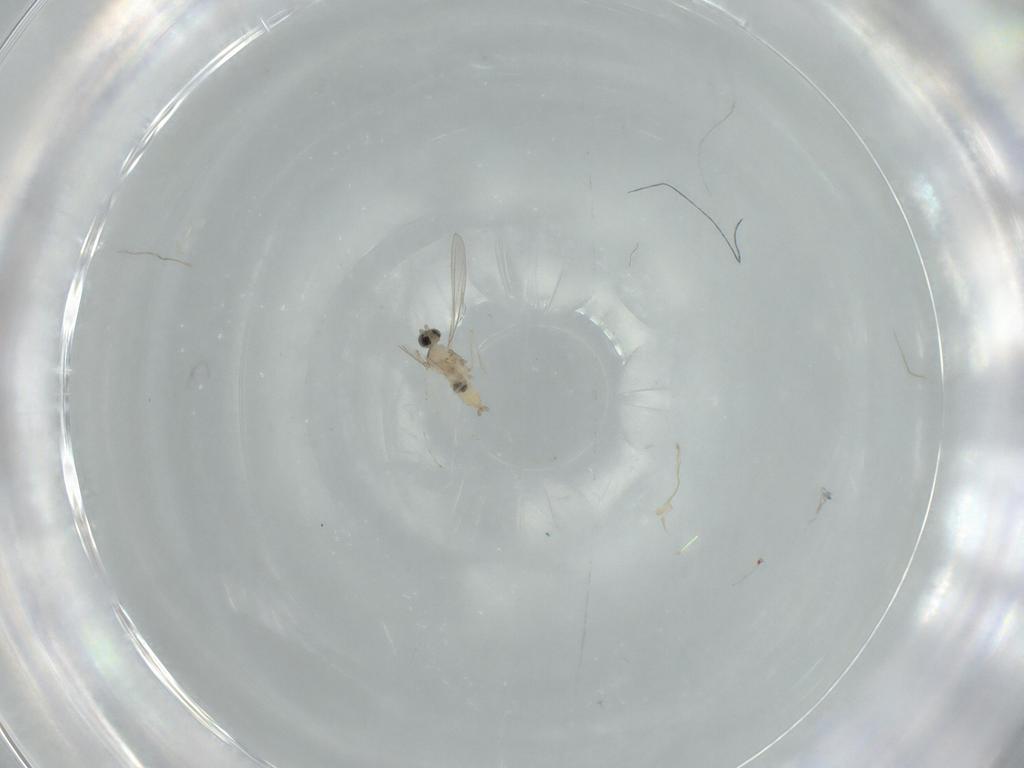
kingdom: Animalia
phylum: Arthropoda
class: Insecta
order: Diptera
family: Cecidomyiidae
